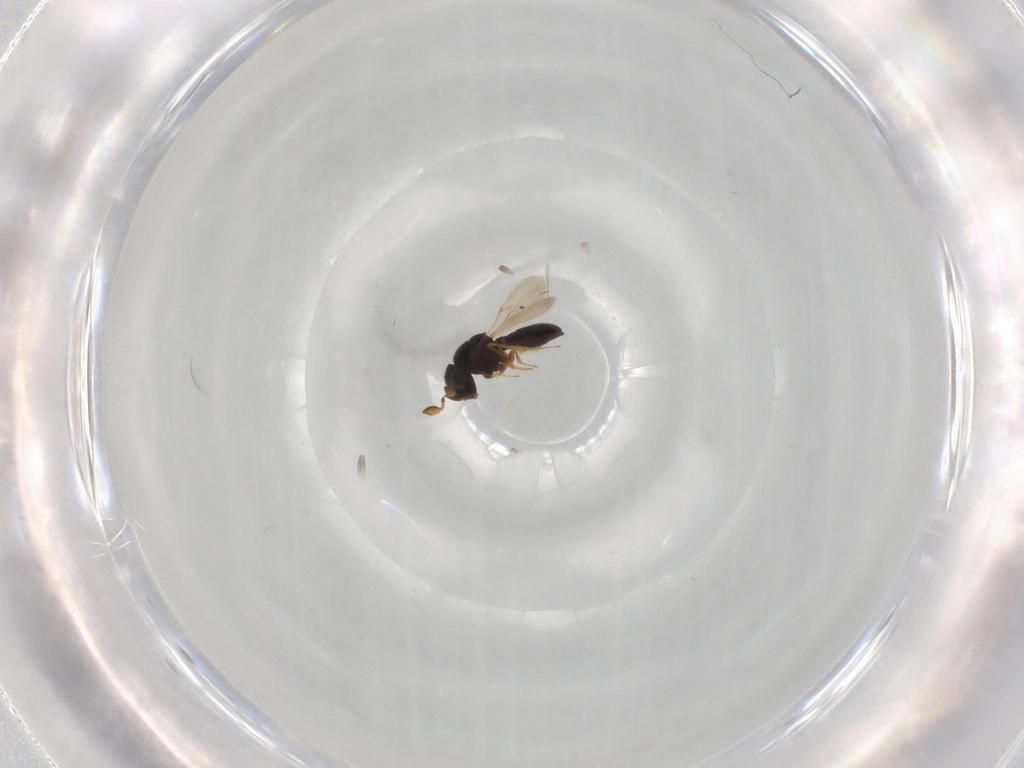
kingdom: Animalia
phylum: Arthropoda
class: Insecta
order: Hymenoptera
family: Scelionidae
